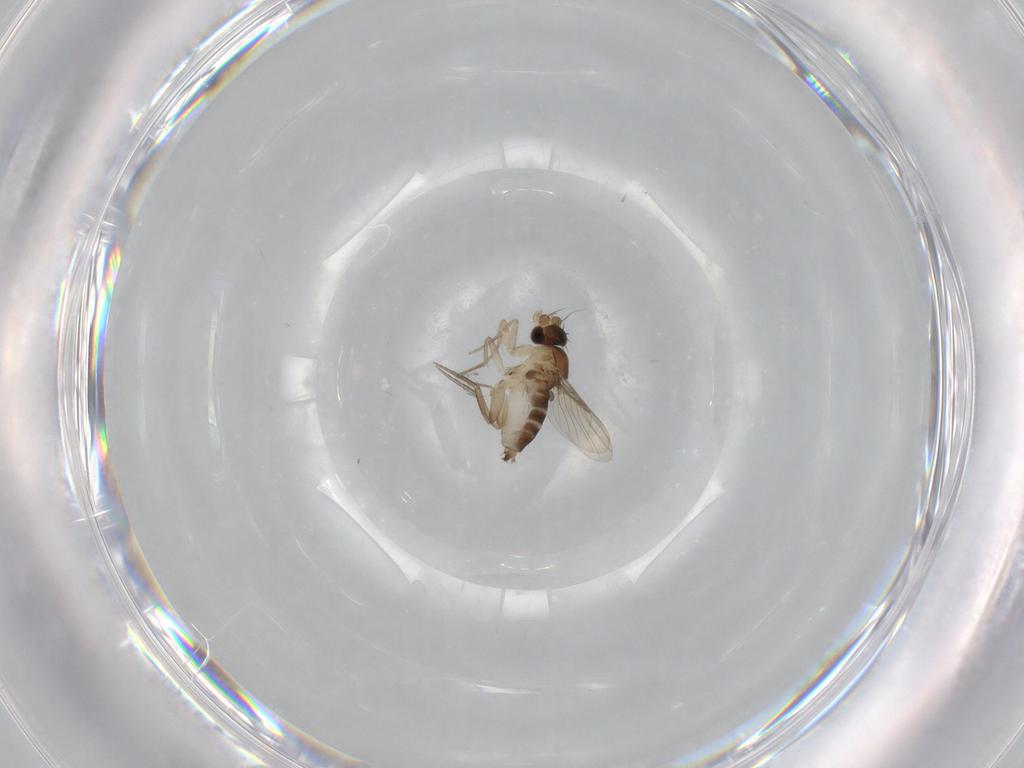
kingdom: Animalia
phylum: Arthropoda
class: Insecta
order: Diptera
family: Phoridae
